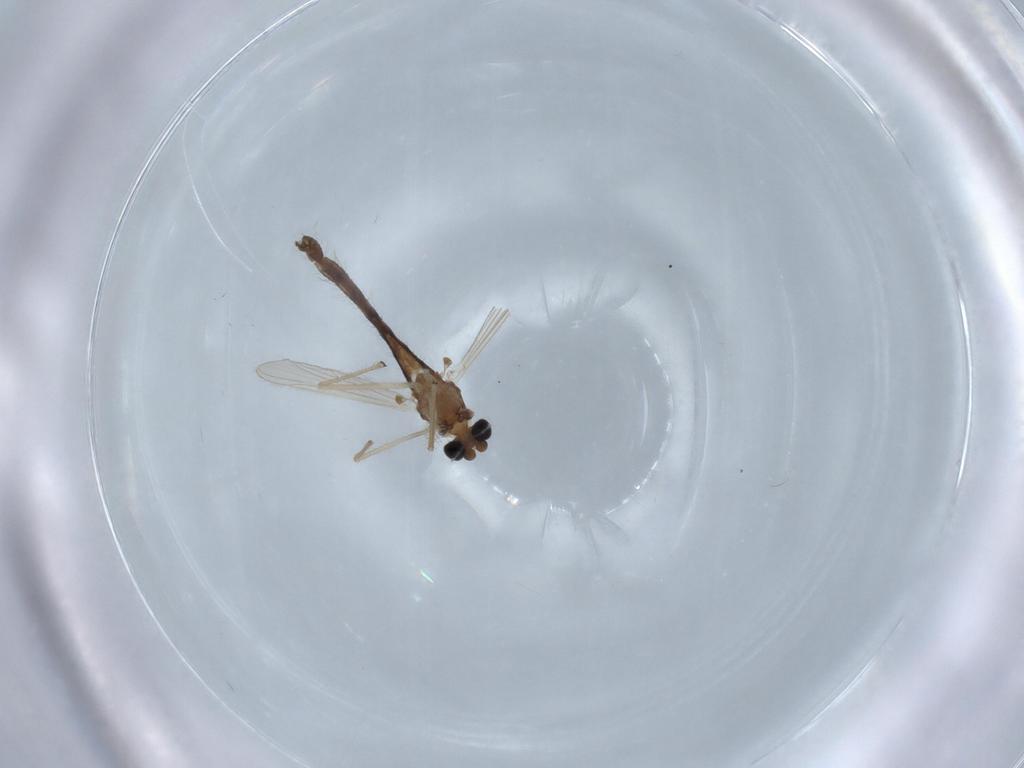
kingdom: Animalia
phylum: Arthropoda
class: Insecta
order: Diptera
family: Chironomidae
